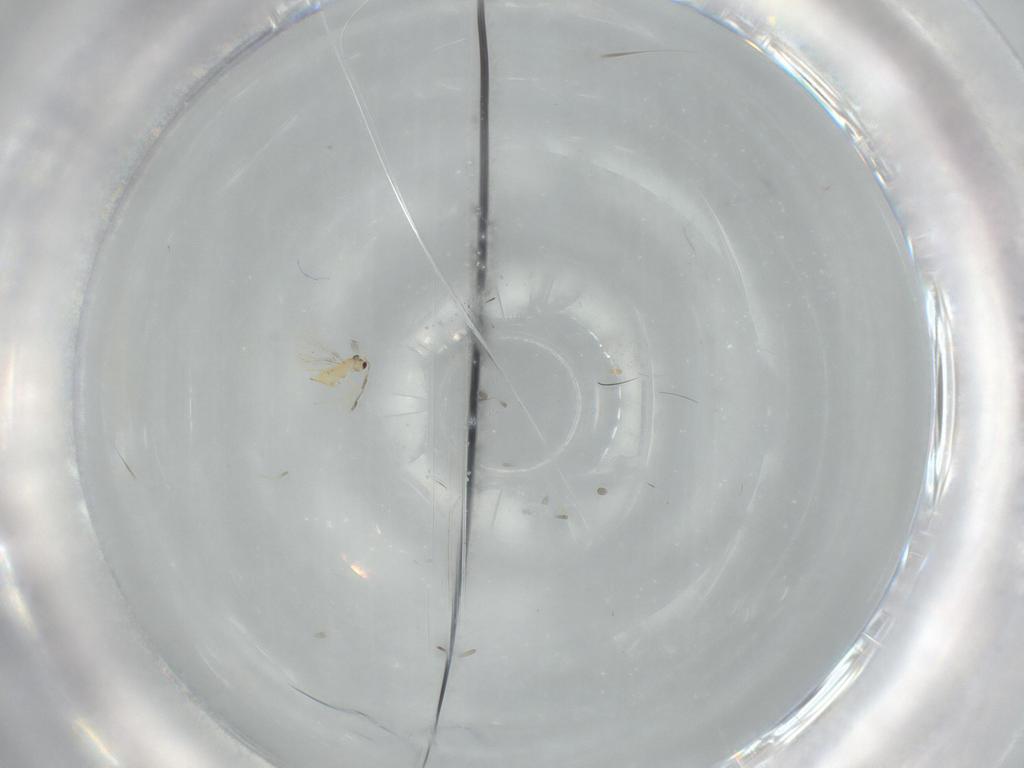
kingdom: Animalia
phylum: Arthropoda
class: Insecta
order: Hymenoptera
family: Mymaridae
